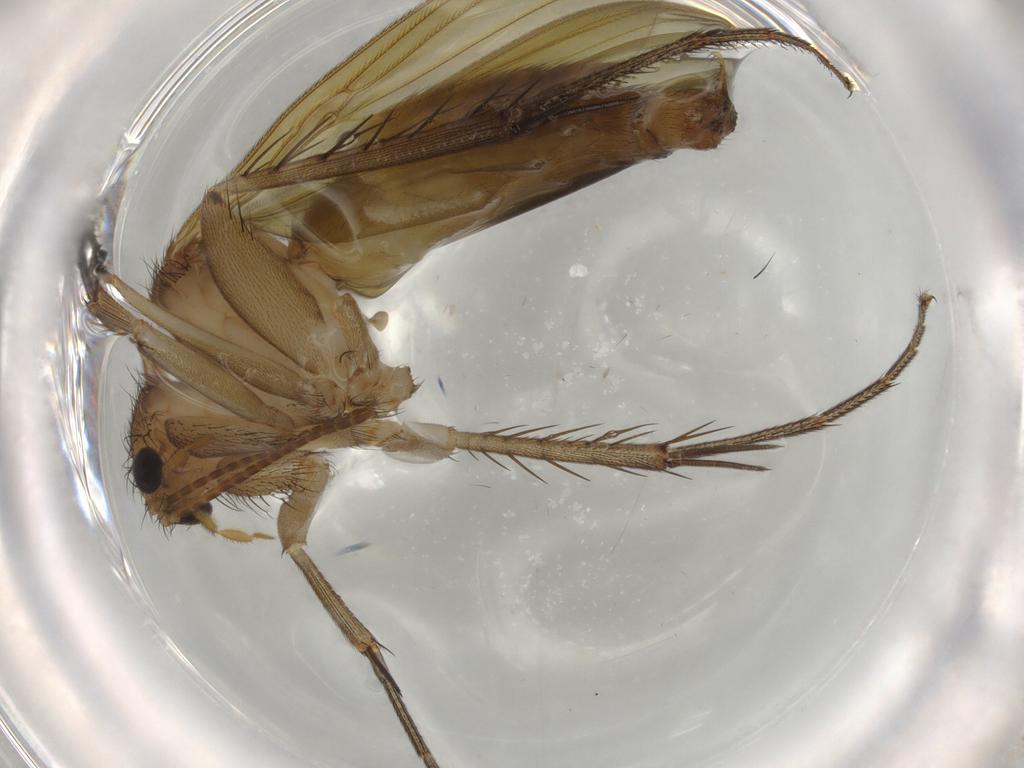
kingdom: Animalia
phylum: Arthropoda
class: Insecta
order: Diptera
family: Mycetophilidae
